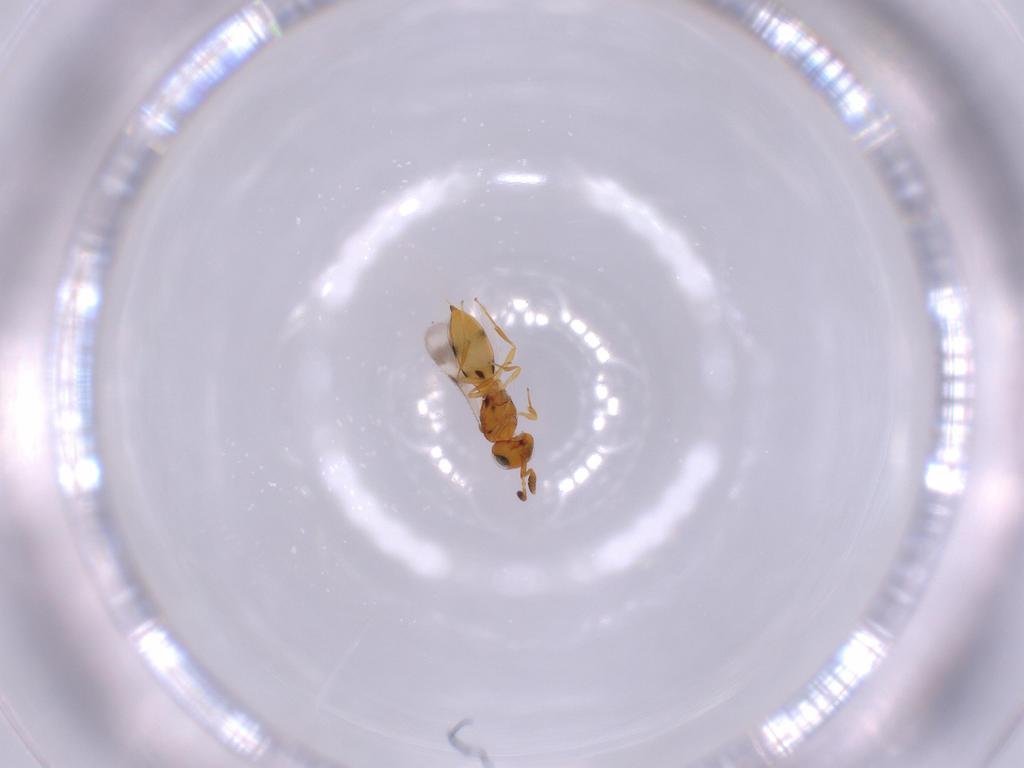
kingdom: Animalia
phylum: Arthropoda
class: Insecta
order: Hymenoptera
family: Scelionidae
